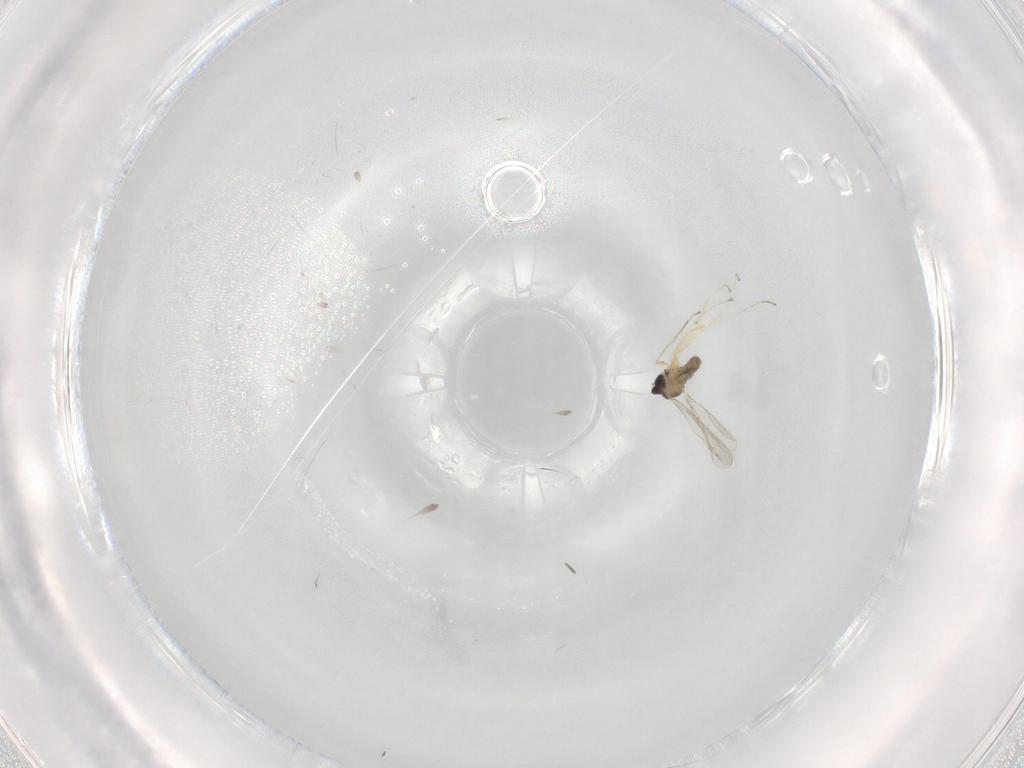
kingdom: Animalia
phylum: Arthropoda
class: Insecta
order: Diptera
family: Cecidomyiidae
